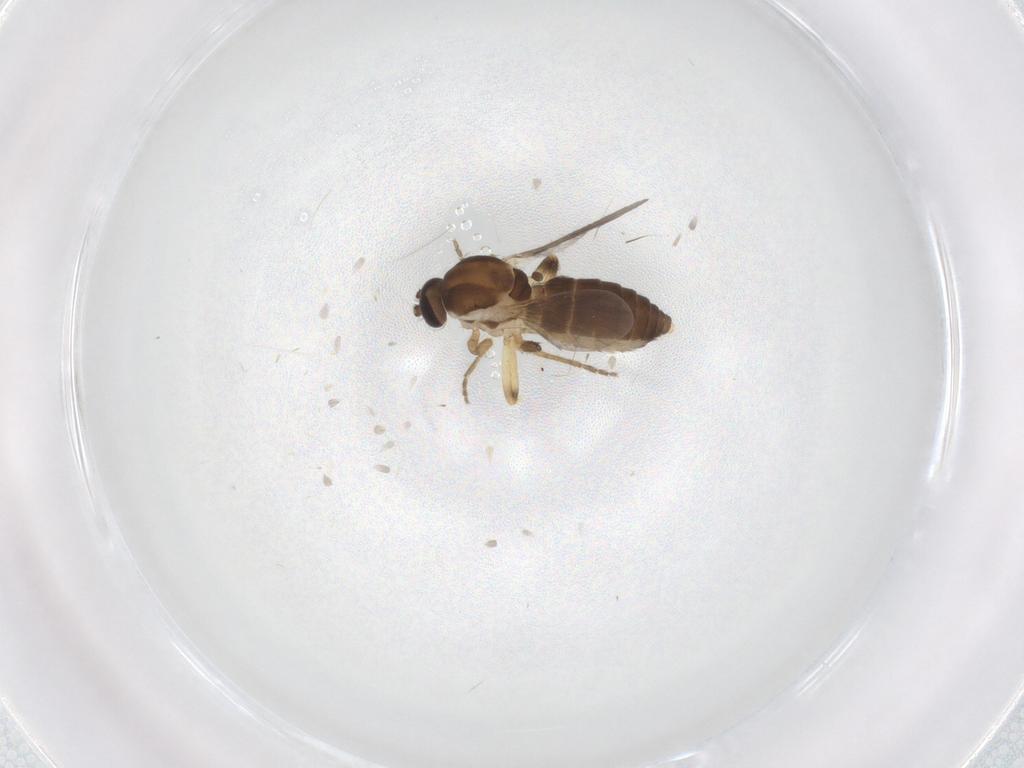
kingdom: Animalia
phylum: Arthropoda
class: Insecta
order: Diptera
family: Ceratopogonidae
